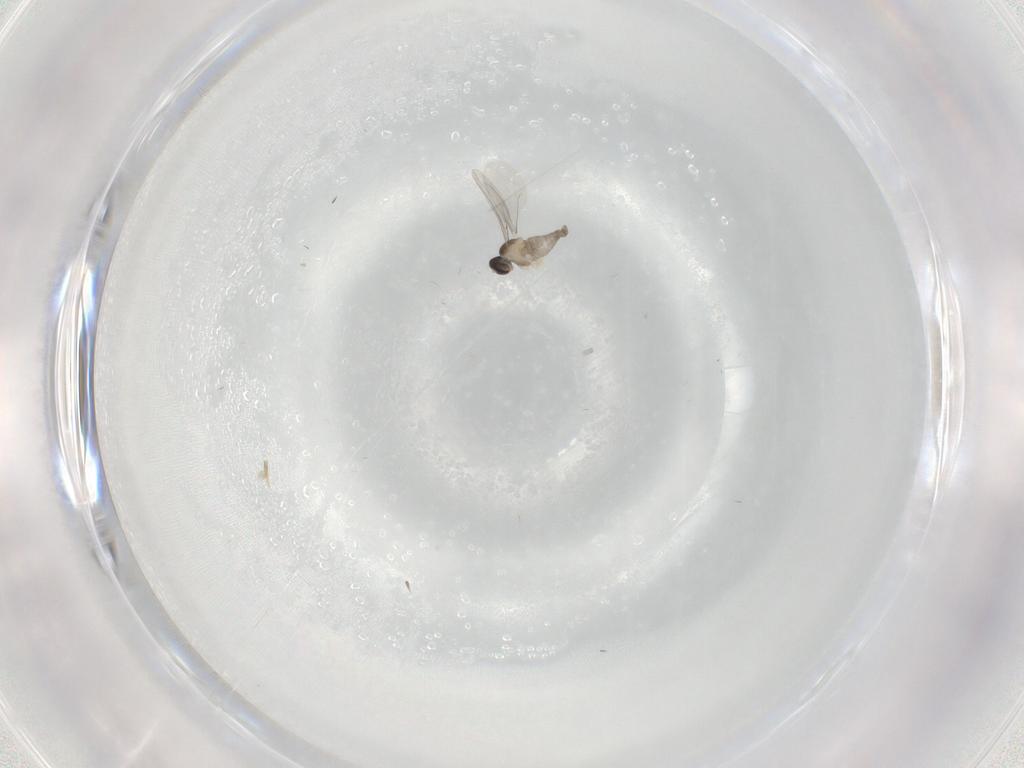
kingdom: Animalia
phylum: Arthropoda
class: Insecta
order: Diptera
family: Cecidomyiidae
